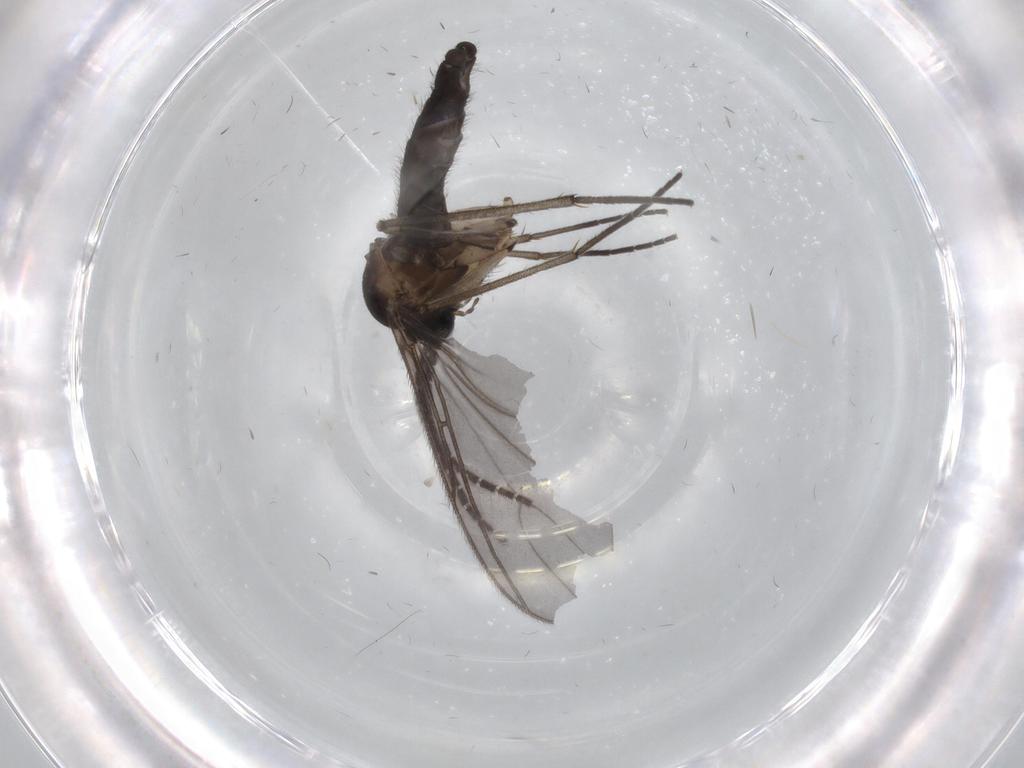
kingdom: Animalia
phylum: Arthropoda
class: Insecta
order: Diptera
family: Sciaridae
